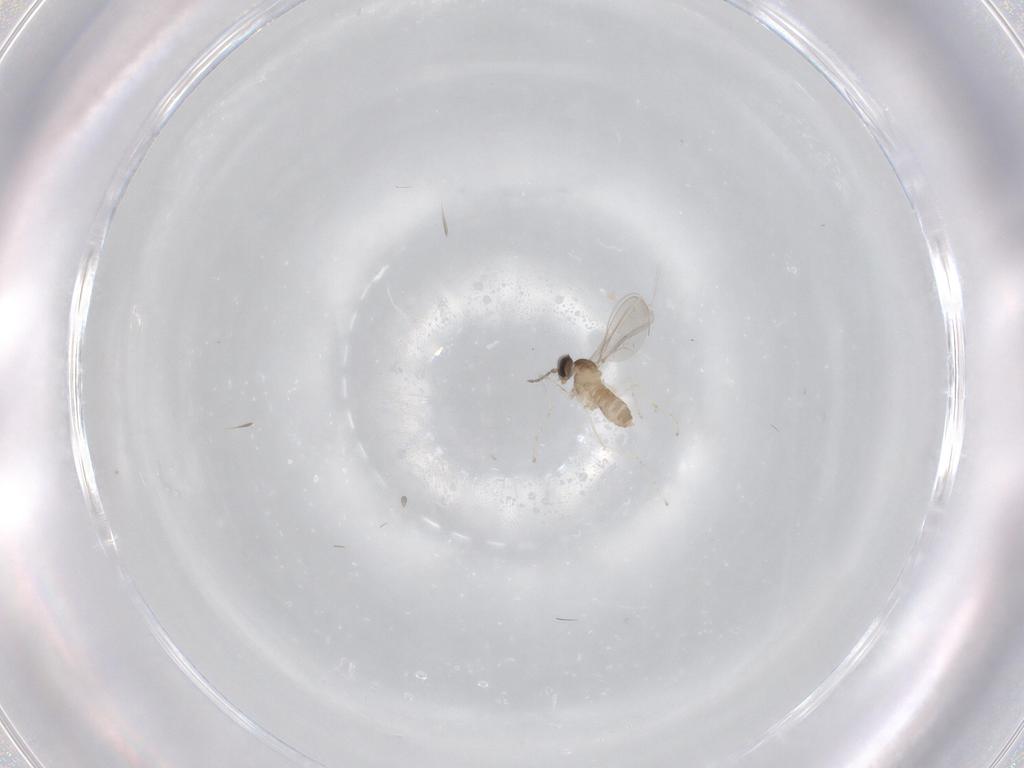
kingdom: Animalia
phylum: Arthropoda
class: Insecta
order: Diptera
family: Cecidomyiidae
